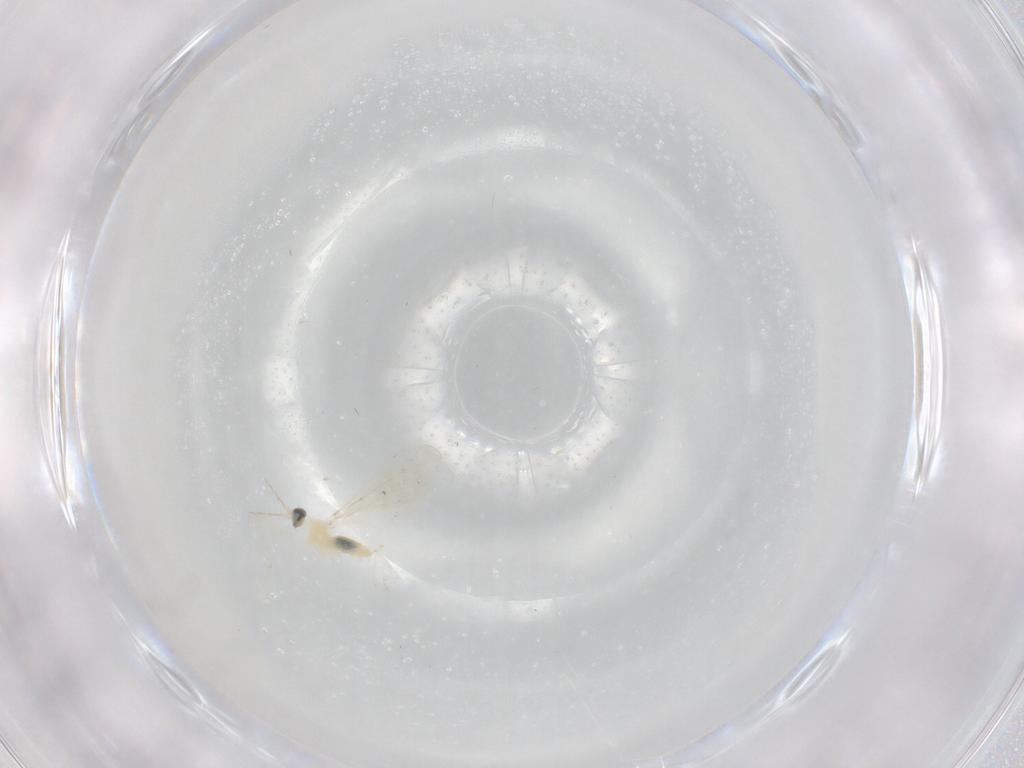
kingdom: Animalia
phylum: Arthropoda
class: Insecta
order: Diptera
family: Cecidomyiidae
